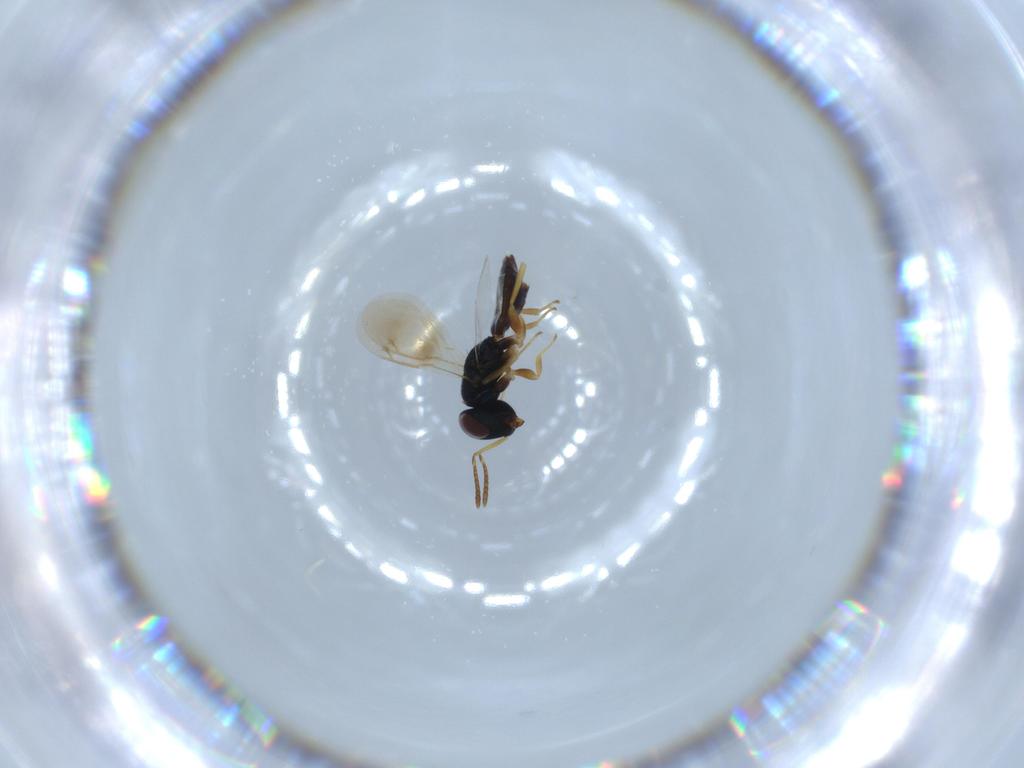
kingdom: Animalia
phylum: Arthropoda
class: Insecta
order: Hymenoptera
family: Pteromalidae
